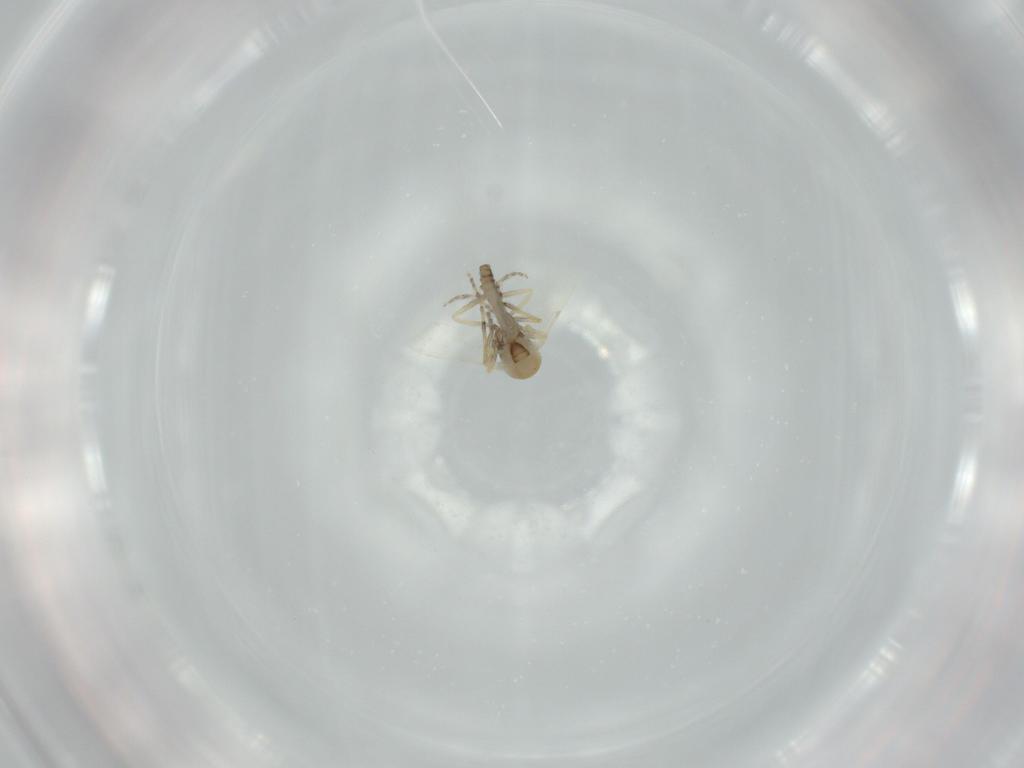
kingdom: Animalia
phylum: Arthropoda
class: Insecta
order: Diptera
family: Ceratopogonidae
